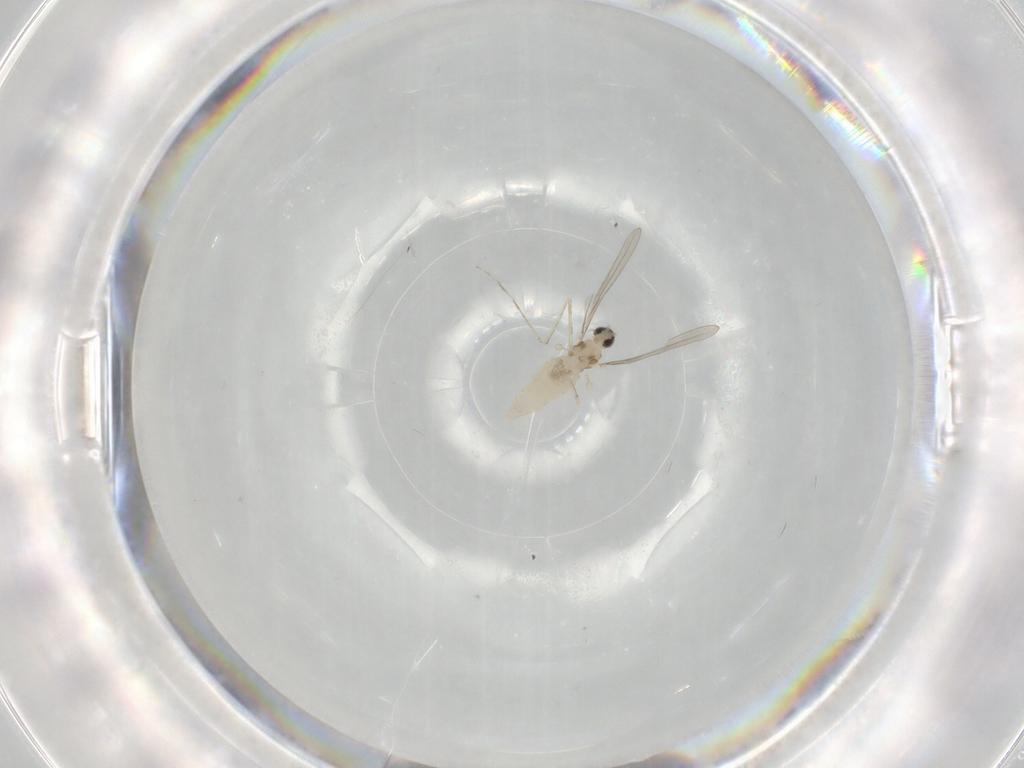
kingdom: Animalia
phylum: Arthropoda
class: Insecta
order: Diptera
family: Cecidomyiidae
